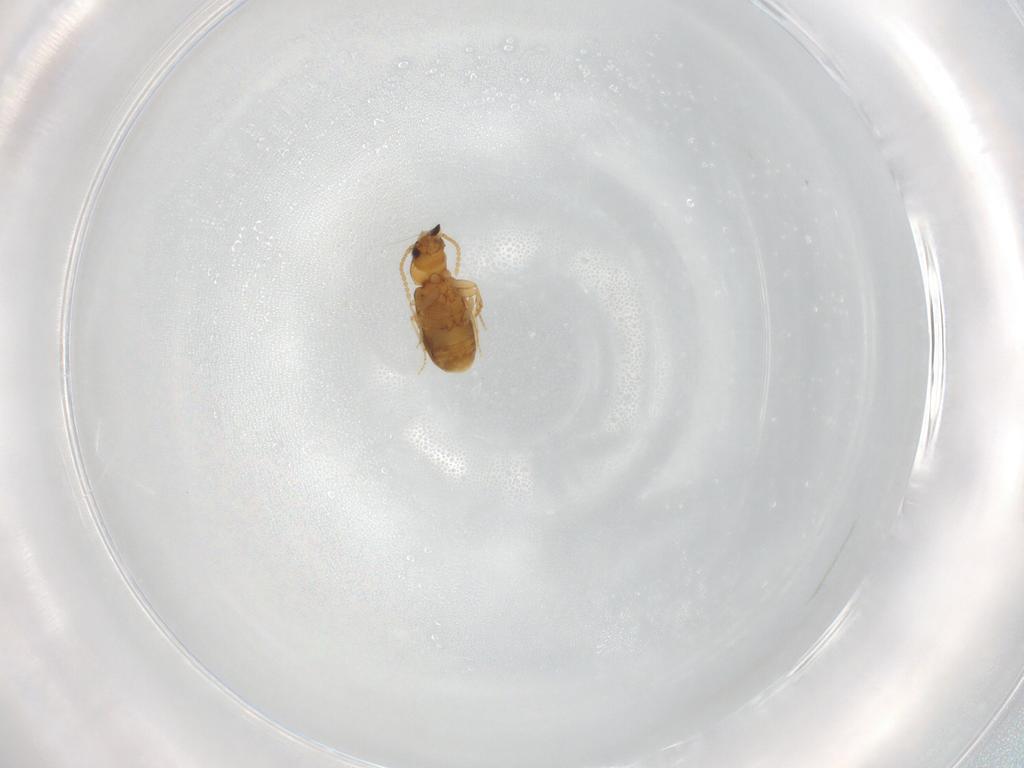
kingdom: Animalia
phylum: Arthropoda
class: Insecta
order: Coleoptera
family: Carabidae
